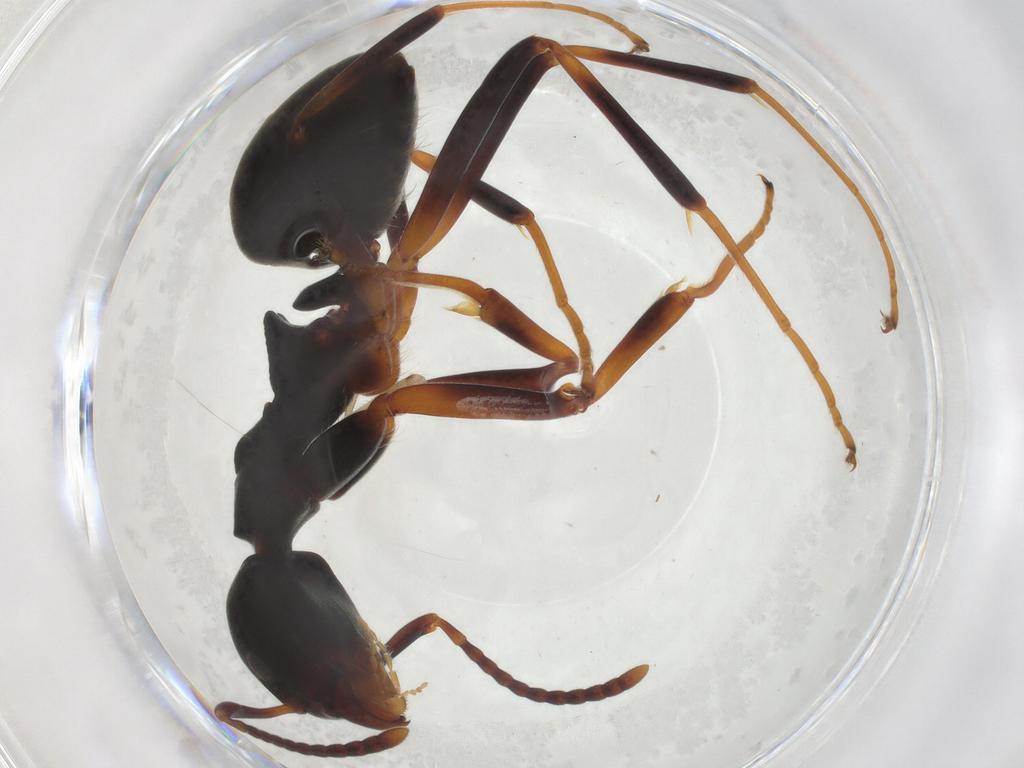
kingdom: Animalia
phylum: Arthropoda
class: Insecta
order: Hymenoptera
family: Formicidae
